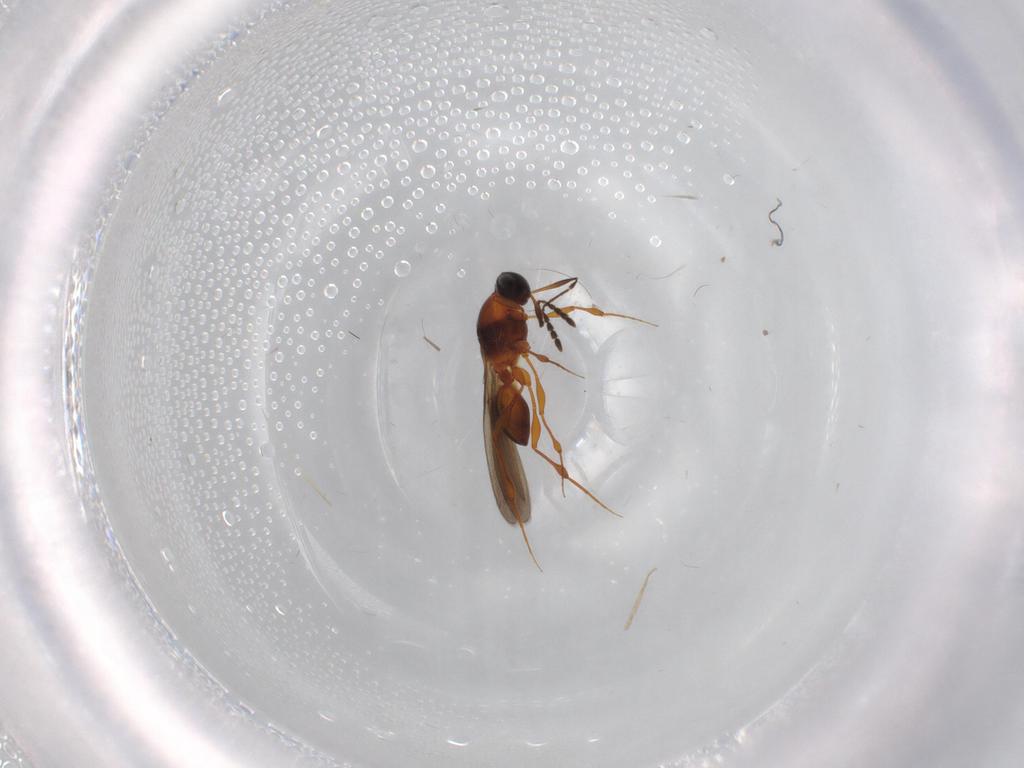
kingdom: Animalia
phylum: Arthropoda
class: Insecta
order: Hymenoptera
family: Platygastridae
